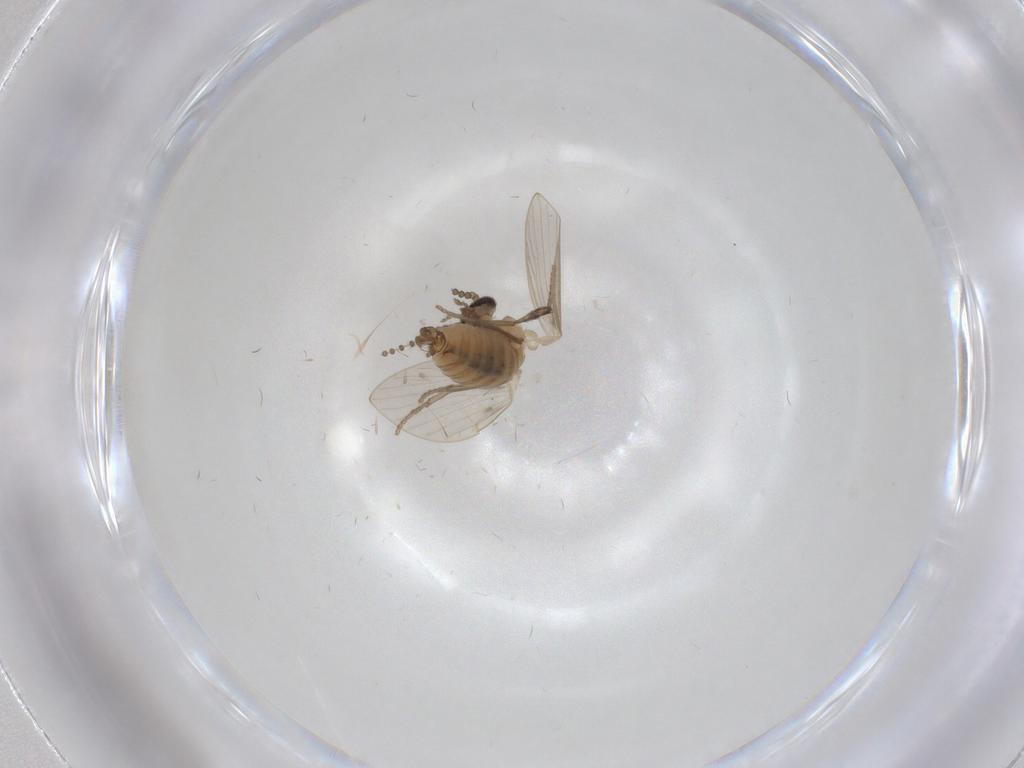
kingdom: Animalia
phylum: Arthropoda
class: Insecta
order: Diptera
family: Psychodidae
